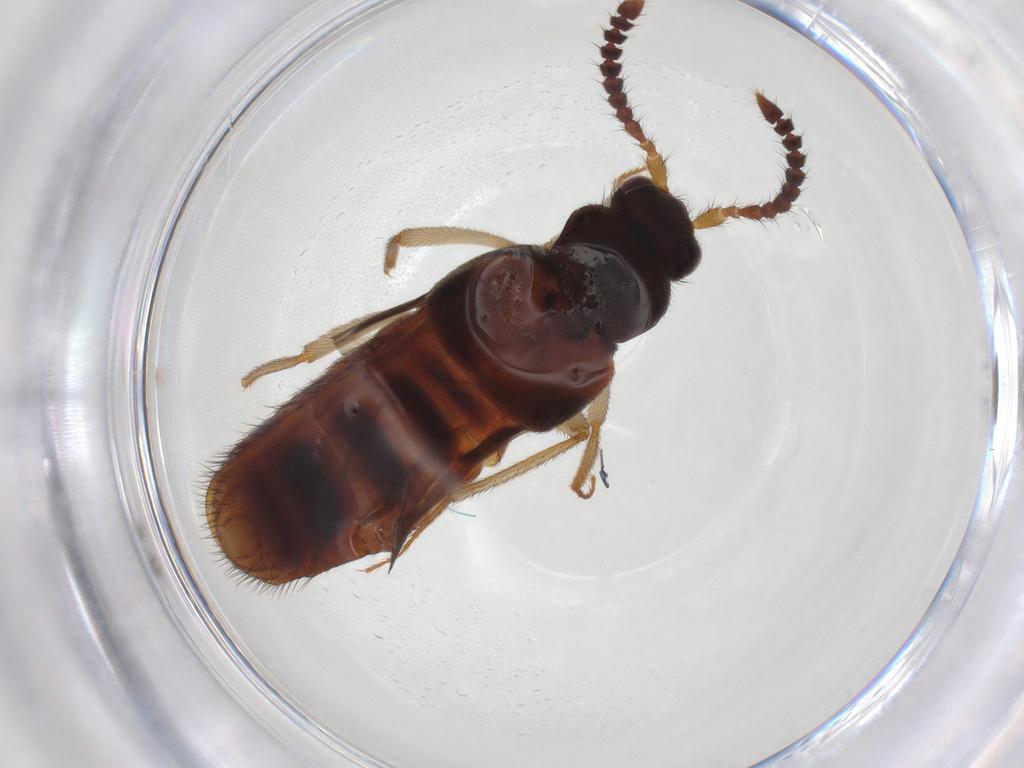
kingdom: Animalia
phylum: Arthropoda
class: Insecta
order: Coleoptera
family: Staphylinidae
